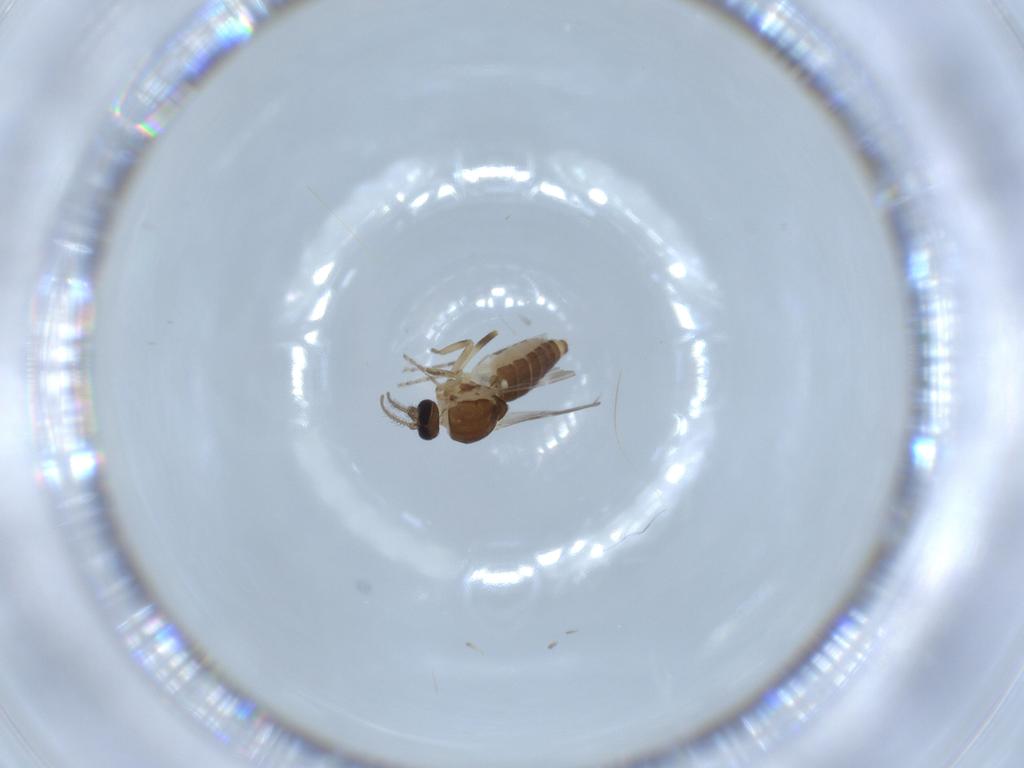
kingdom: Animalia
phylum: Arthropoda
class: Insecta
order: Diptera
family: Ceratopogonidae
